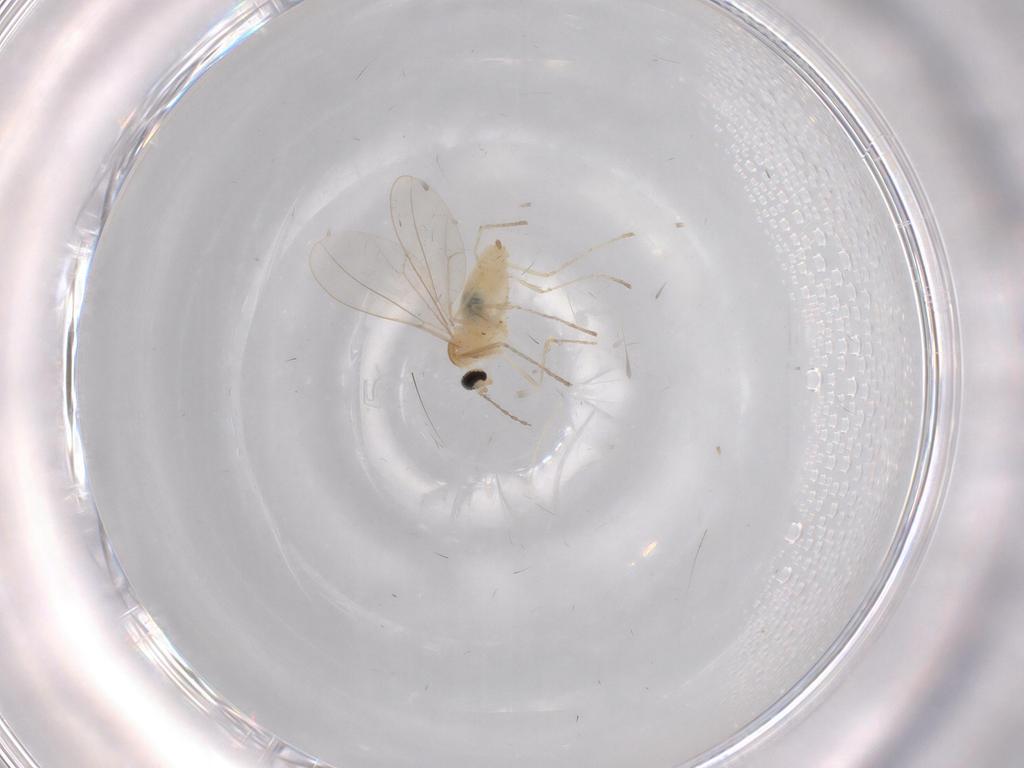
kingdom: Animalia
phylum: Arthropoda
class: Insecta
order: Diptera
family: Cecidomyiidae
